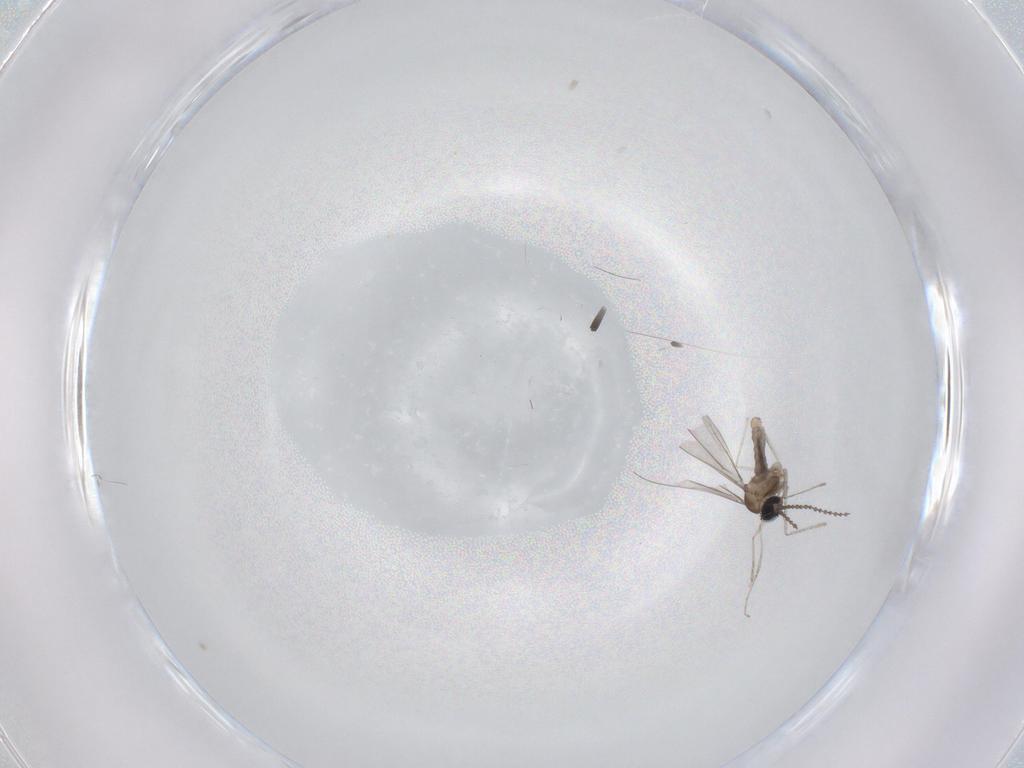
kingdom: Animalia
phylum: Arthropoda
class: Insecta
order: Diptera
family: Cecidomyiidae
